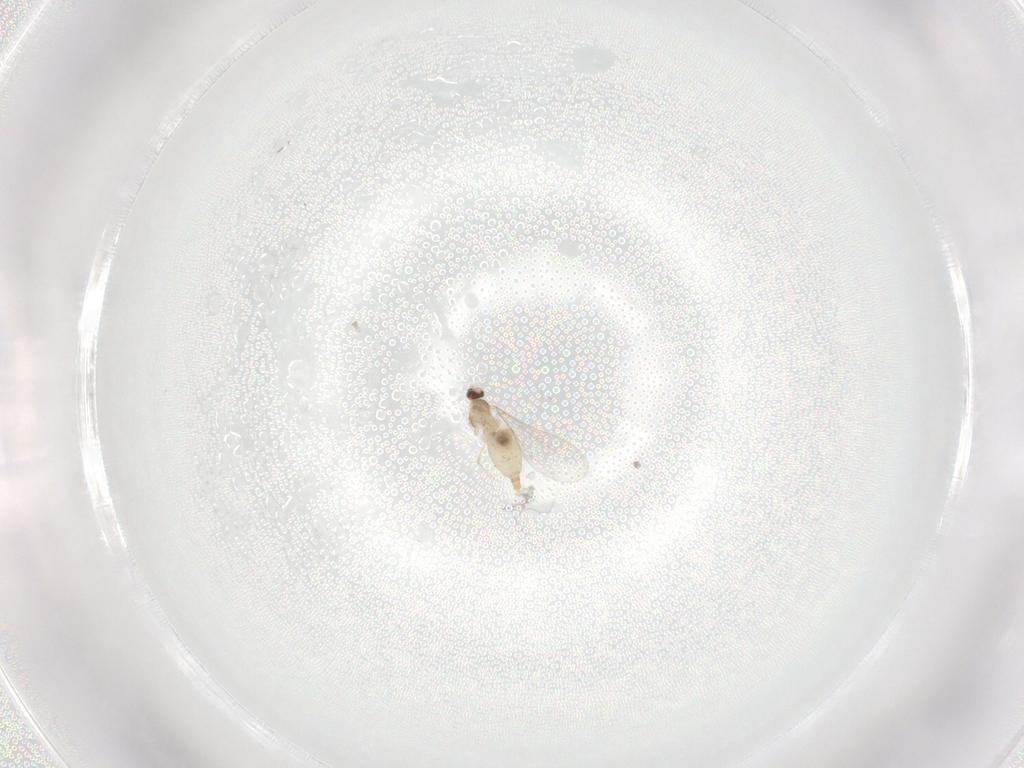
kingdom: Animalia
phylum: Arthropoda
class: Insecta
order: Diptera
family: Cecidomyiidae
